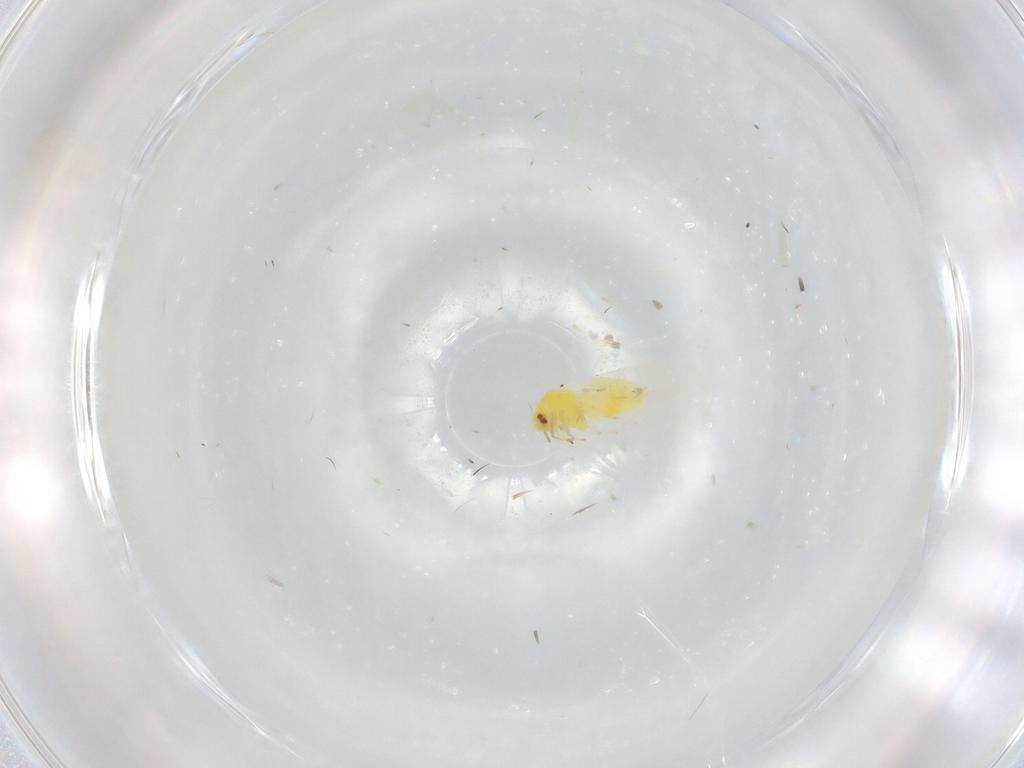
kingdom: Animalia
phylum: Arthropoda
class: Insecta
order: Hemiptera
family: Aleyrodidae
